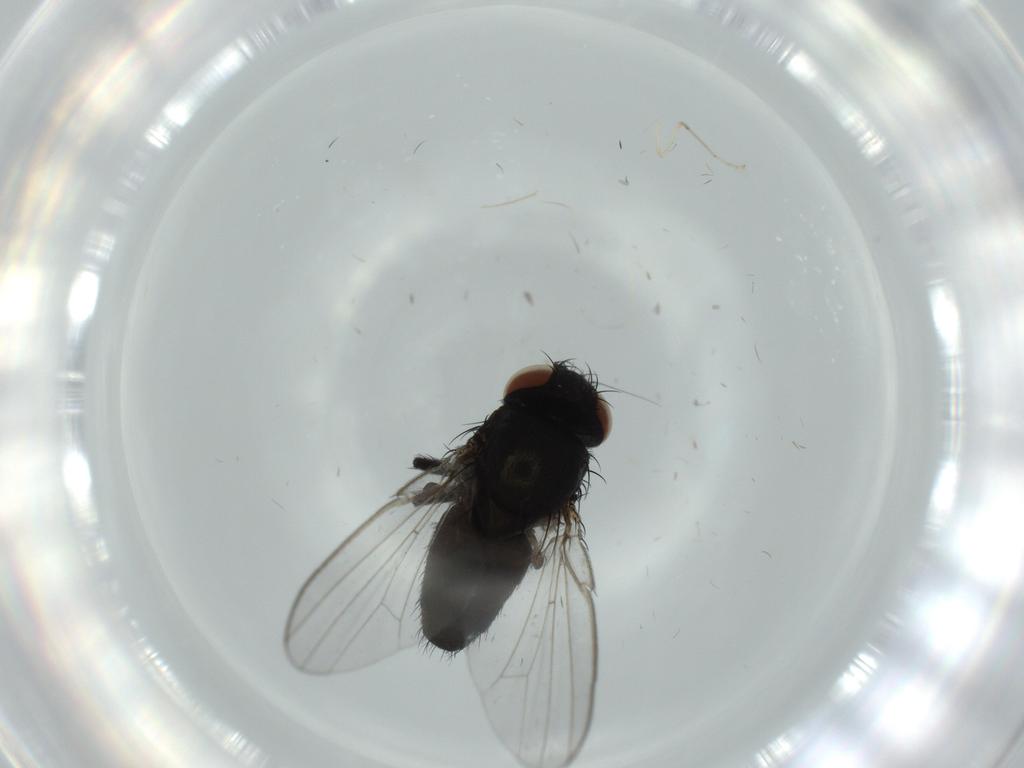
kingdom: Animalia
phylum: Arthropoda
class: Insecta
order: Diptera
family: Milichiidae
